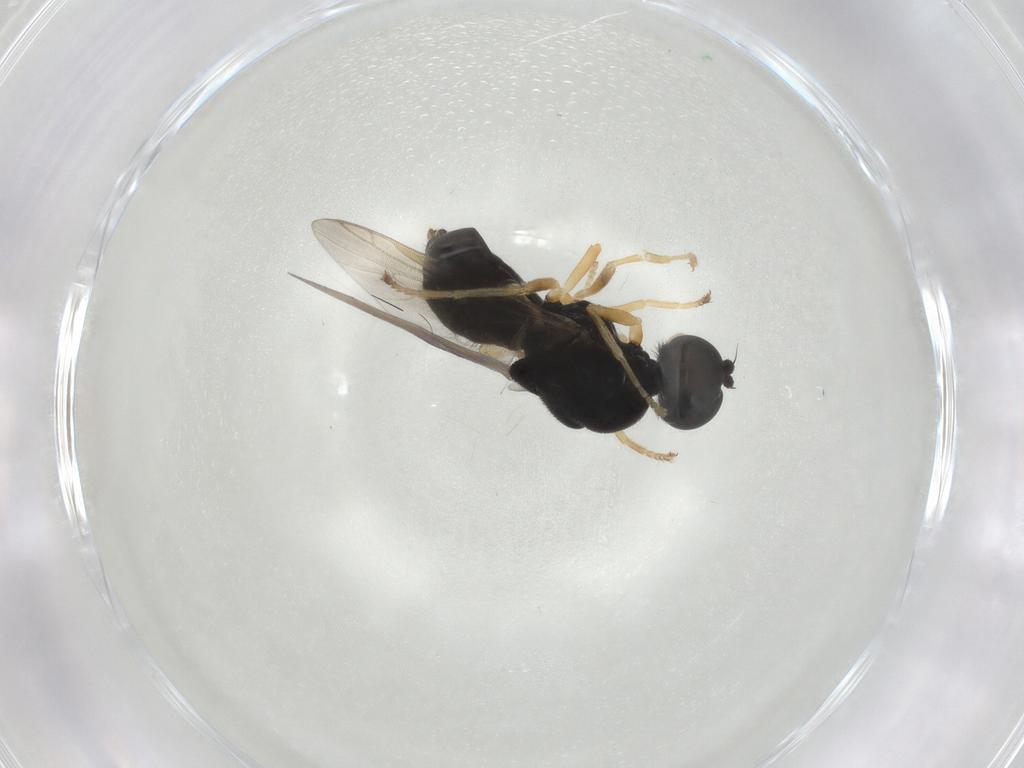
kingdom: Animalia
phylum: Arthropoda
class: Insecta
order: Diptera
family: Stratiomyidae
